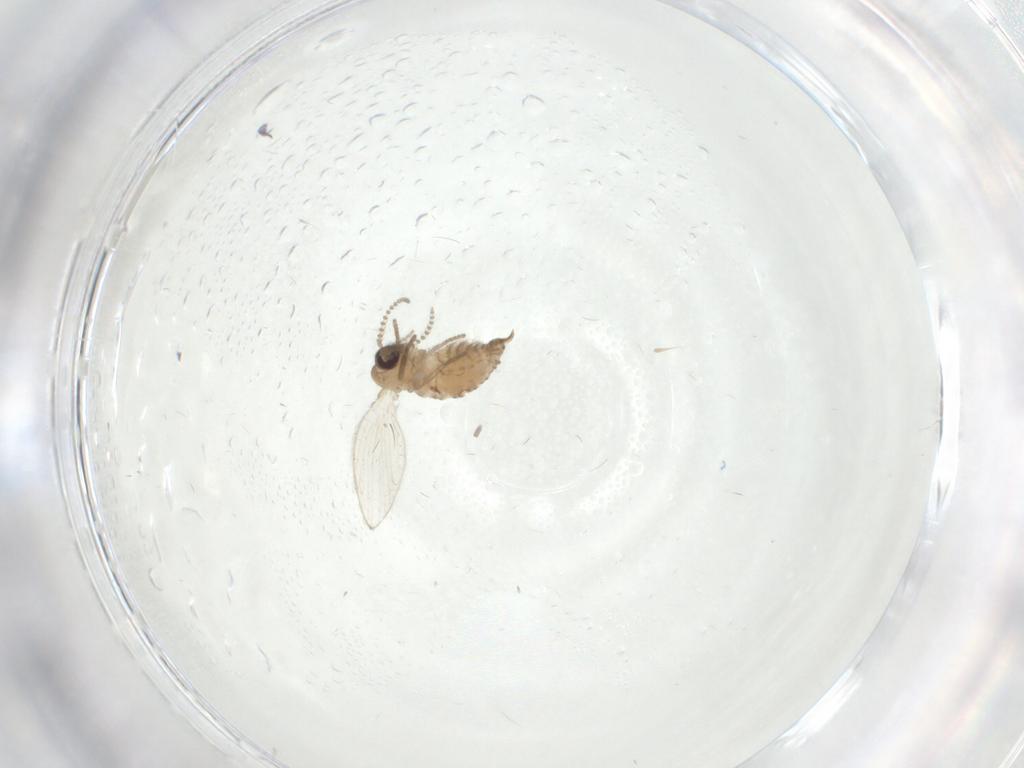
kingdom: Animalia
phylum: Arthropoda
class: Insecta
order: Diptera
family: Psychodidae
